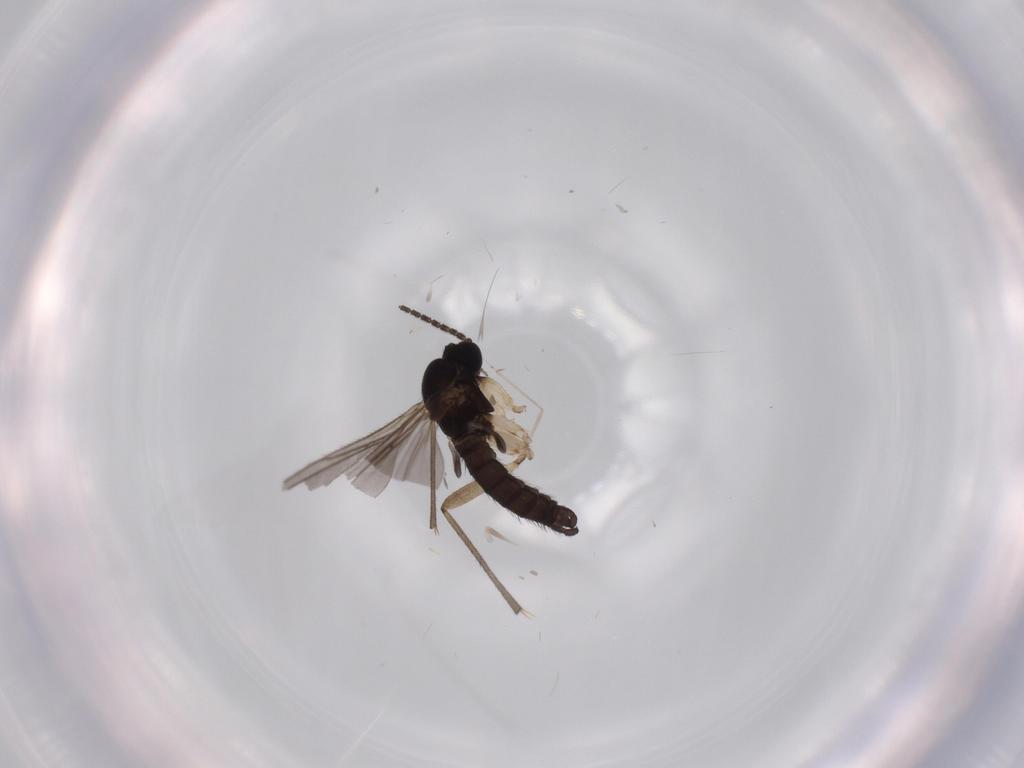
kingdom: Animalia
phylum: Arthropoda
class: Insecta
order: Diptera
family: Sciaridae
